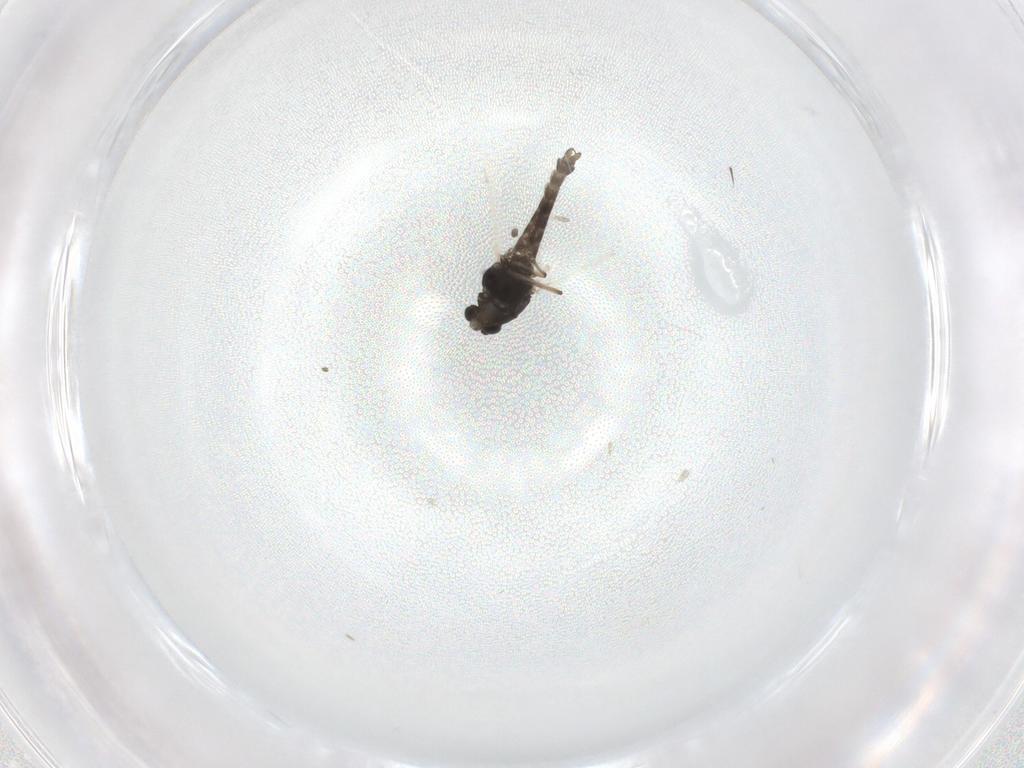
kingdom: Animalia
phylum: Arthropoda
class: Insecta
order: Diptera
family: Chironomidae
